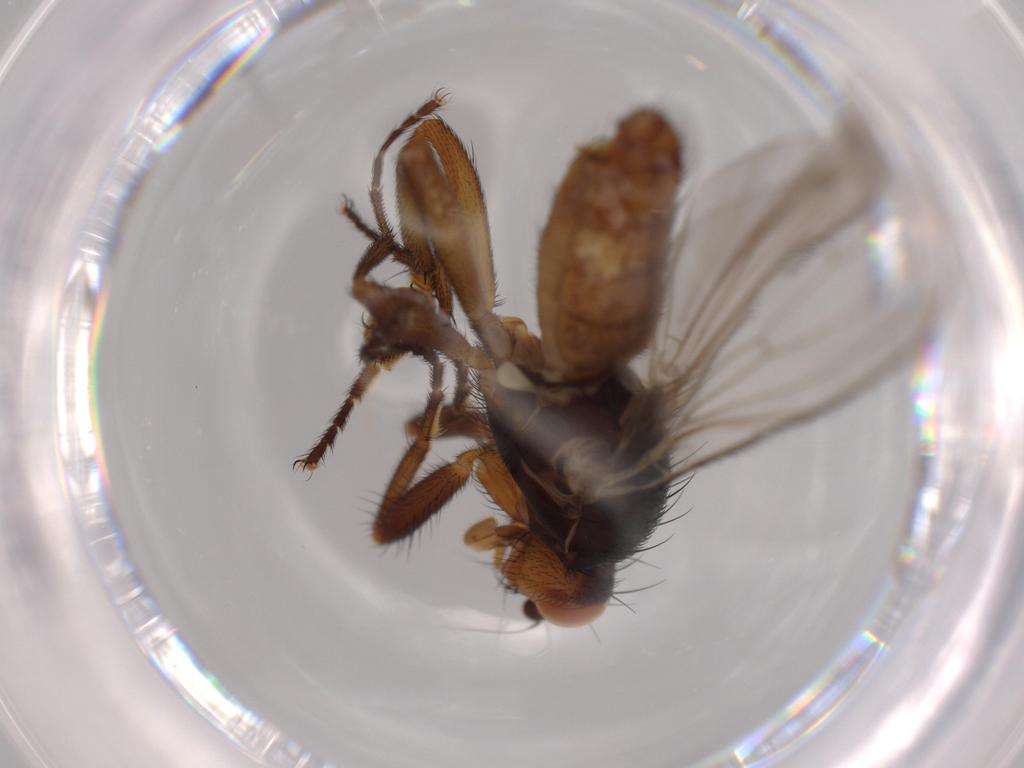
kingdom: Animalia
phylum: Arthropoda
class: Insecta
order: Diptera
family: Heleomyzidae
